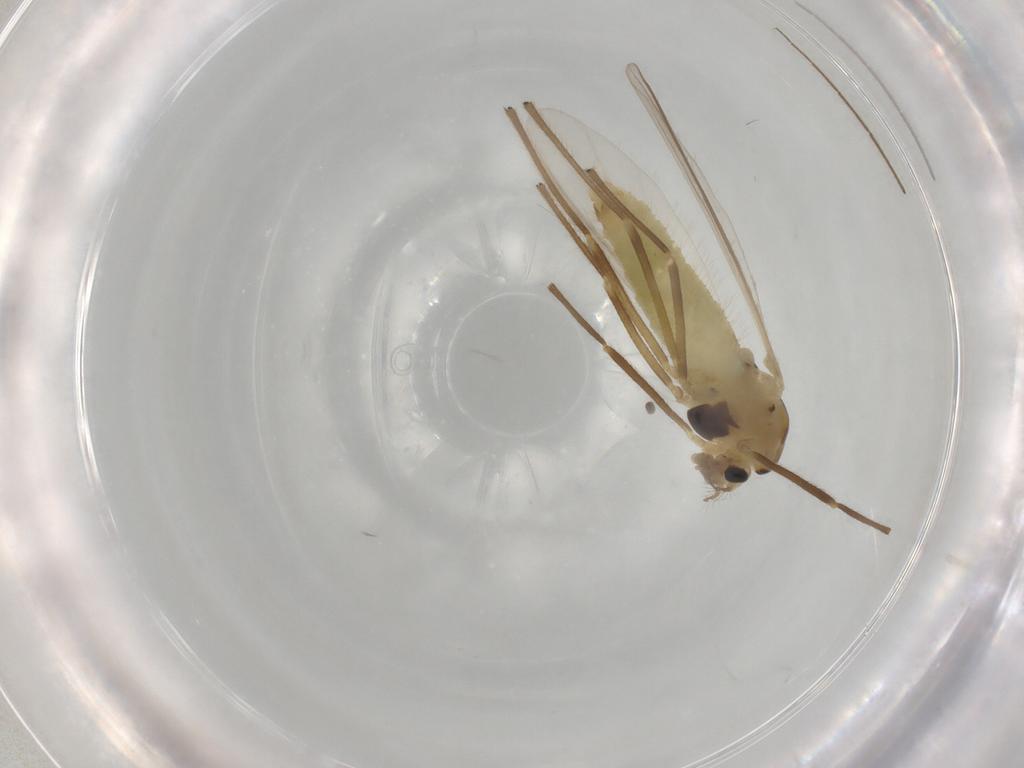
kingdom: Animalia
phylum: Arthropoda
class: Insecta
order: Diptera
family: Chironomidae
